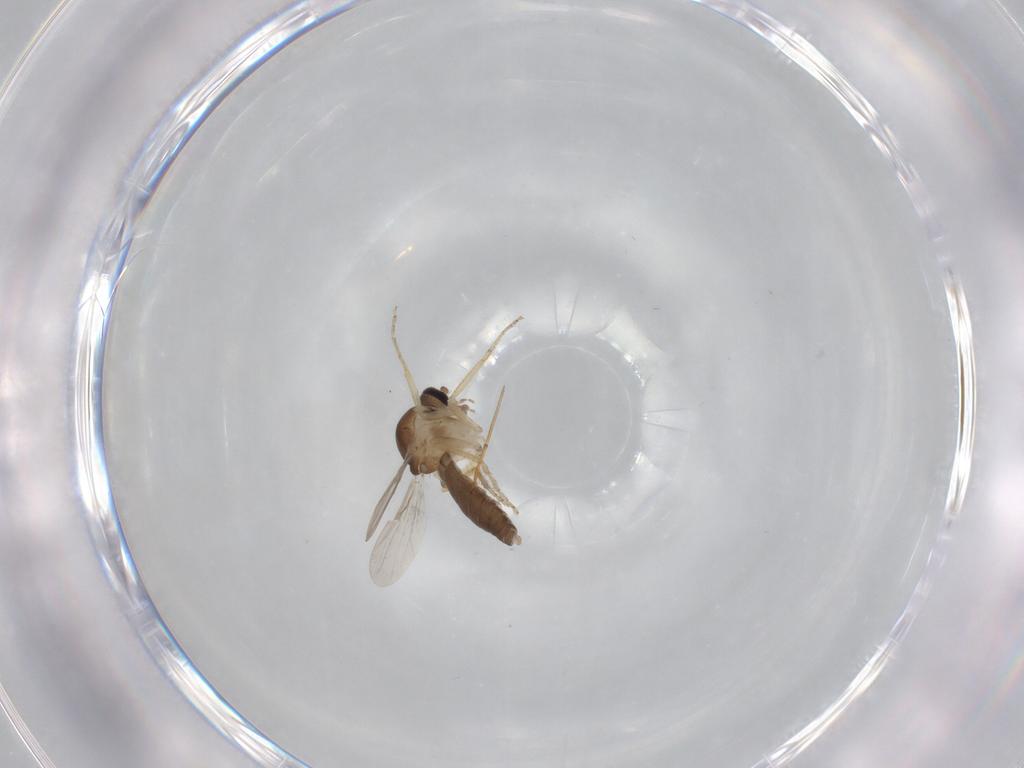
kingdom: Animalia
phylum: Arthropoda
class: Insecta
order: Diptera
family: Ceratopogonidae
